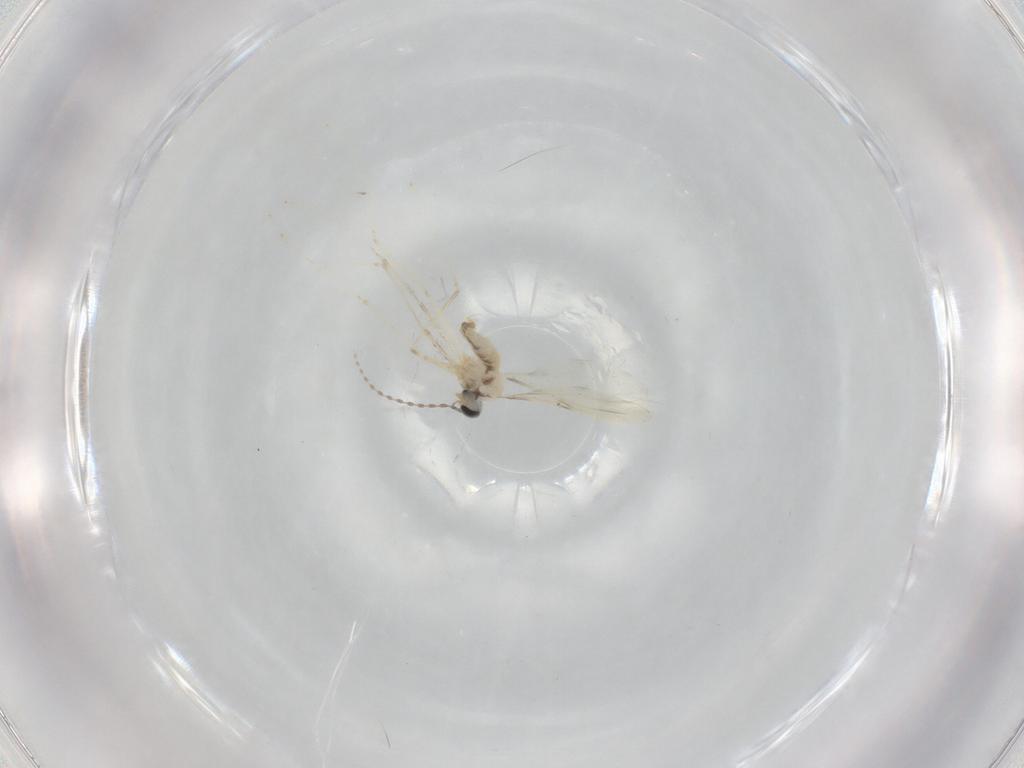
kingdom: Animalia
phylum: Arthropoda
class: Insecta
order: Diptera
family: Cecidomyiidae
